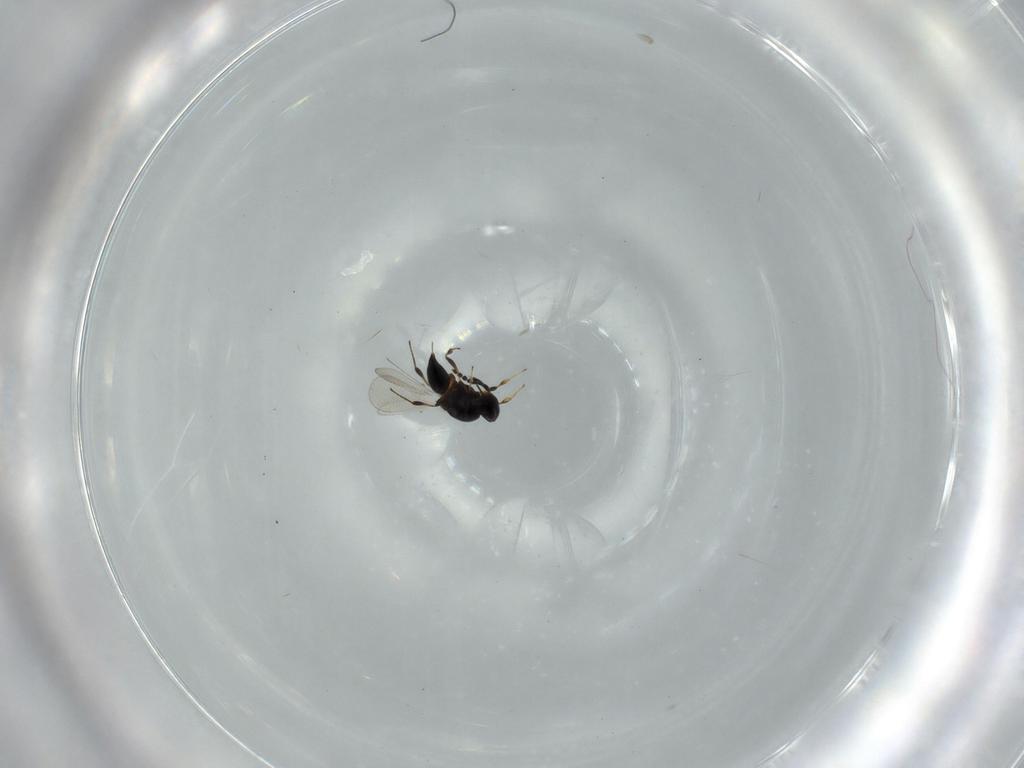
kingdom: Animalia
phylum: Arthropoda
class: Insecta
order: Hymenoptera
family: Platygastridae
